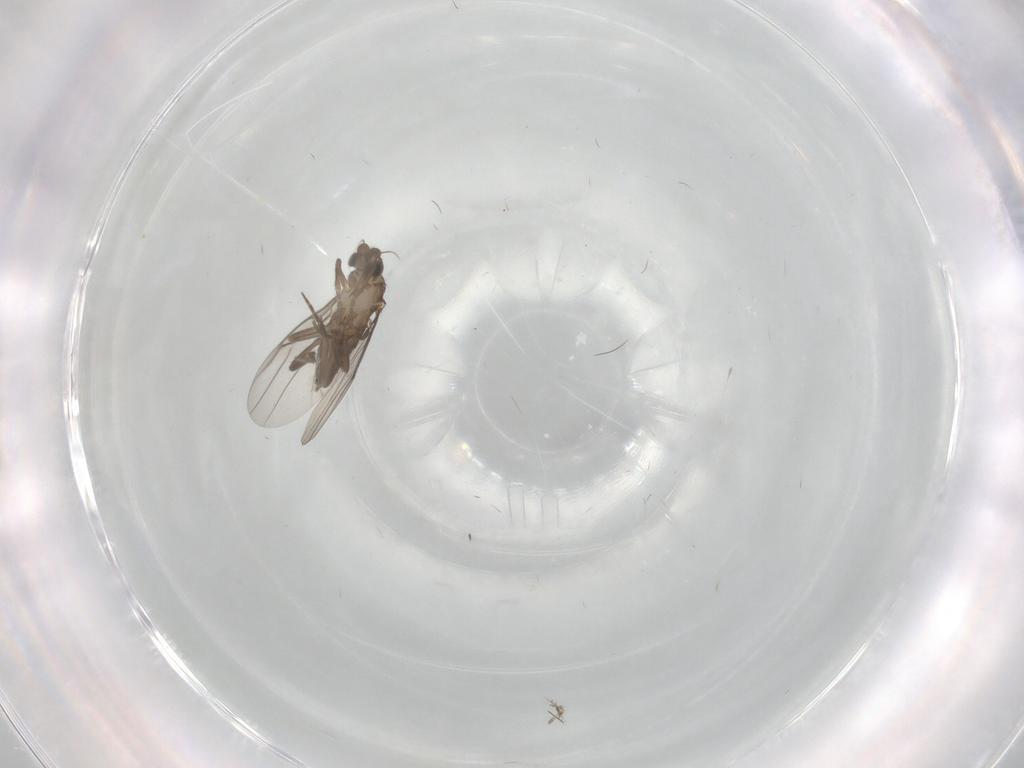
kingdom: Animalia
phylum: Arthropoda
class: Insecta
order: Diptera
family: Phoridae
